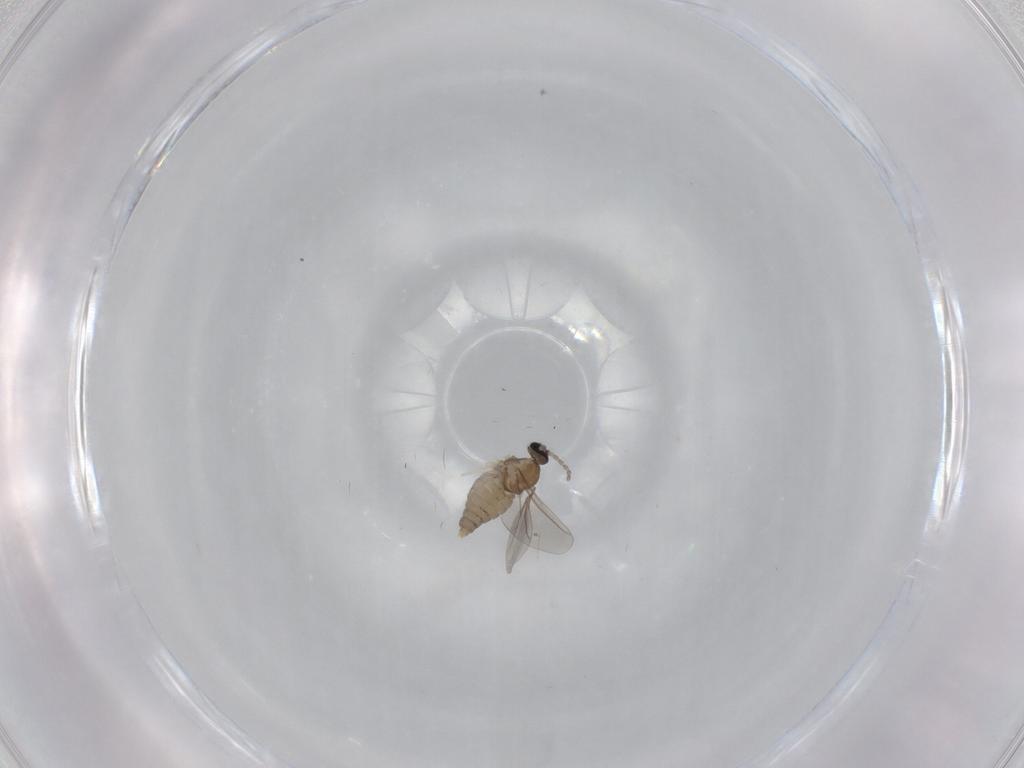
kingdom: Animalia
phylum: Arthropoda
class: Insecta
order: Diptera
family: Cecidomyiidae
